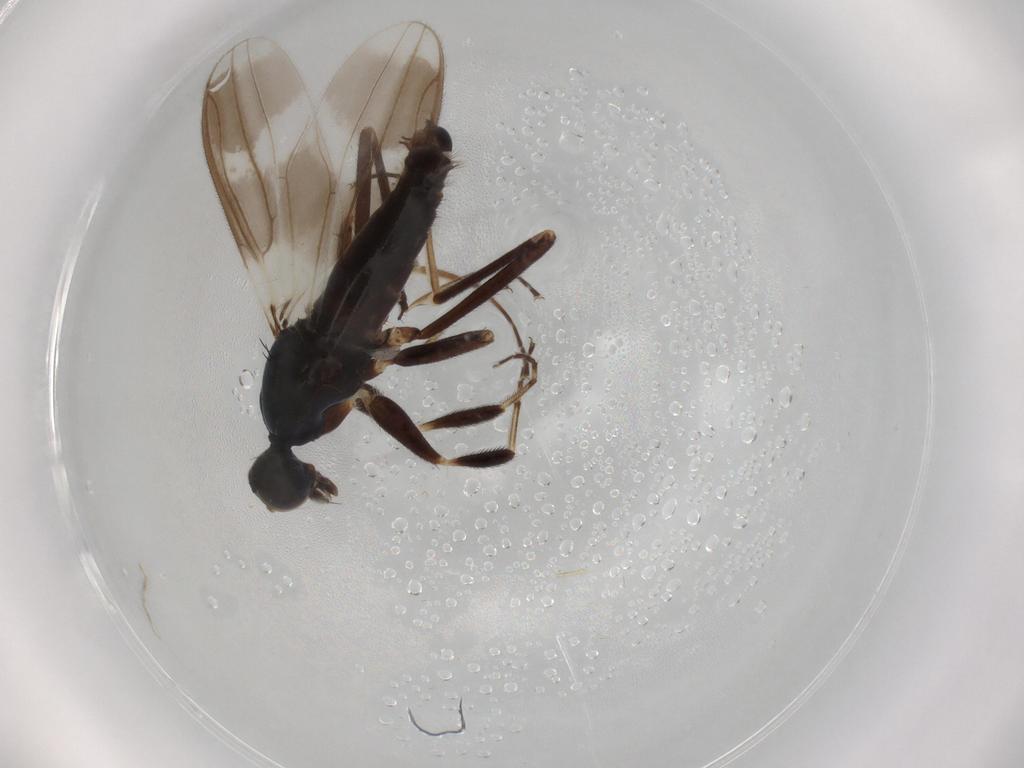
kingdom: Animalia
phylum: Arthropoda
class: Insecta
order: Diptera
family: Hybotidae
